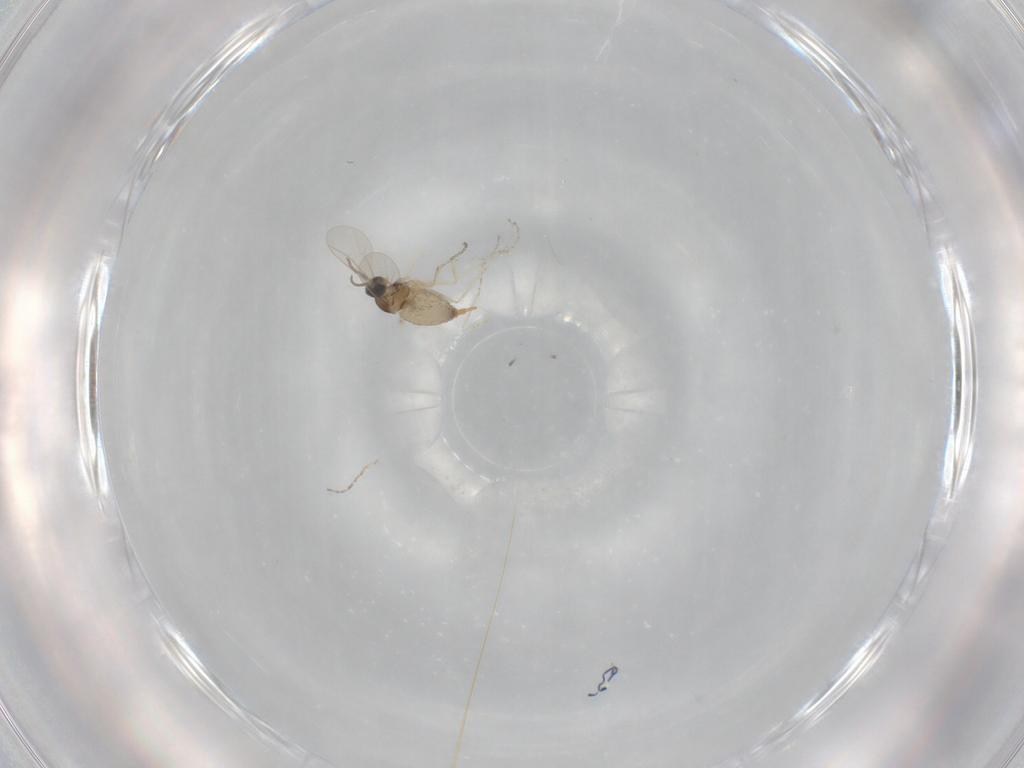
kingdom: Animalia
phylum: Arthropoda
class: Insecta
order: Diptera
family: Cecidomyiidae
